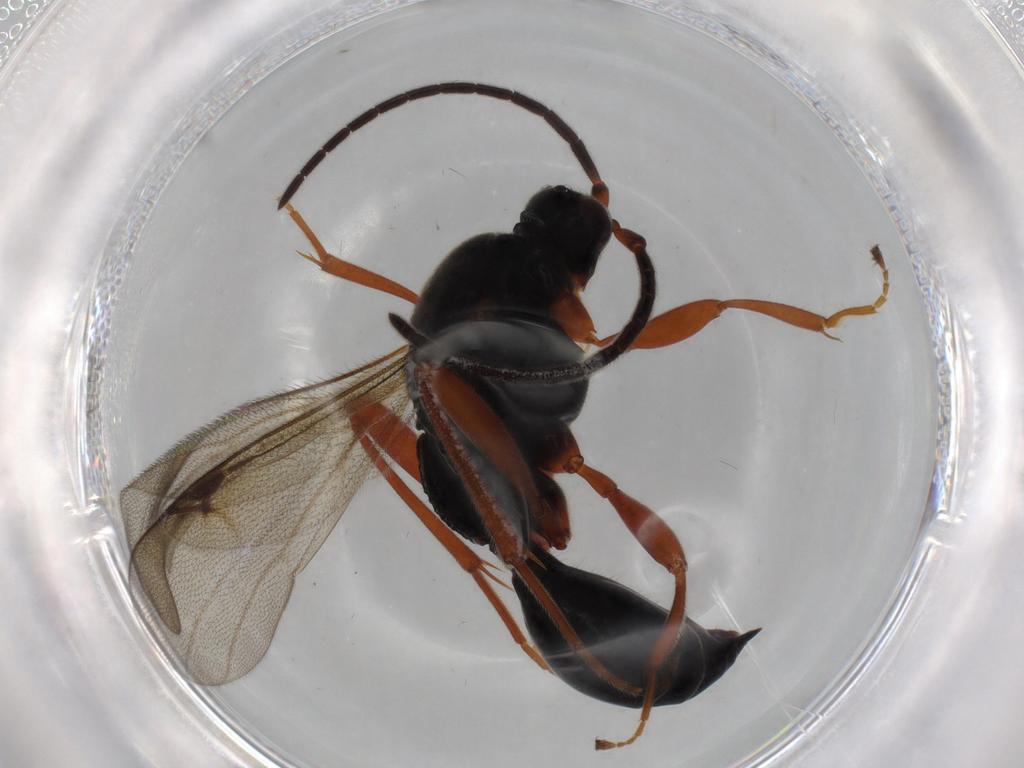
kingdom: Animalia
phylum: Arthropoda
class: Insecta
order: Hymenoptera
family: Proctotrupidae
